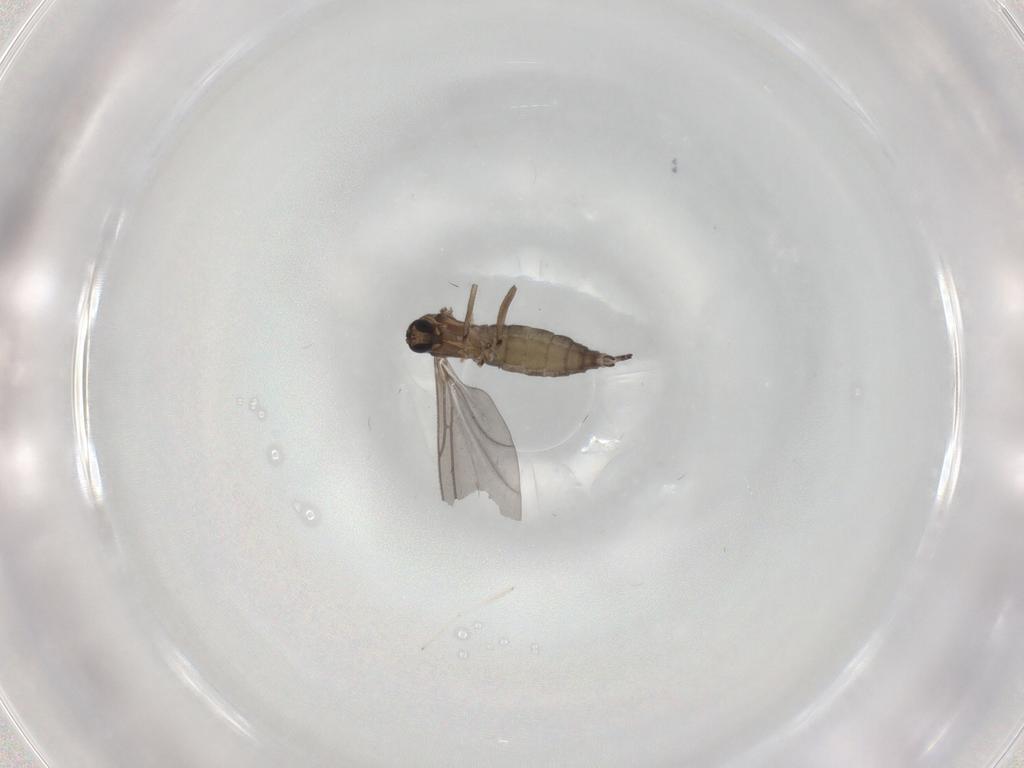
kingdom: Animalia
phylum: Arthropoda
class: Insecta
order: Diptera
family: Sciaridae
